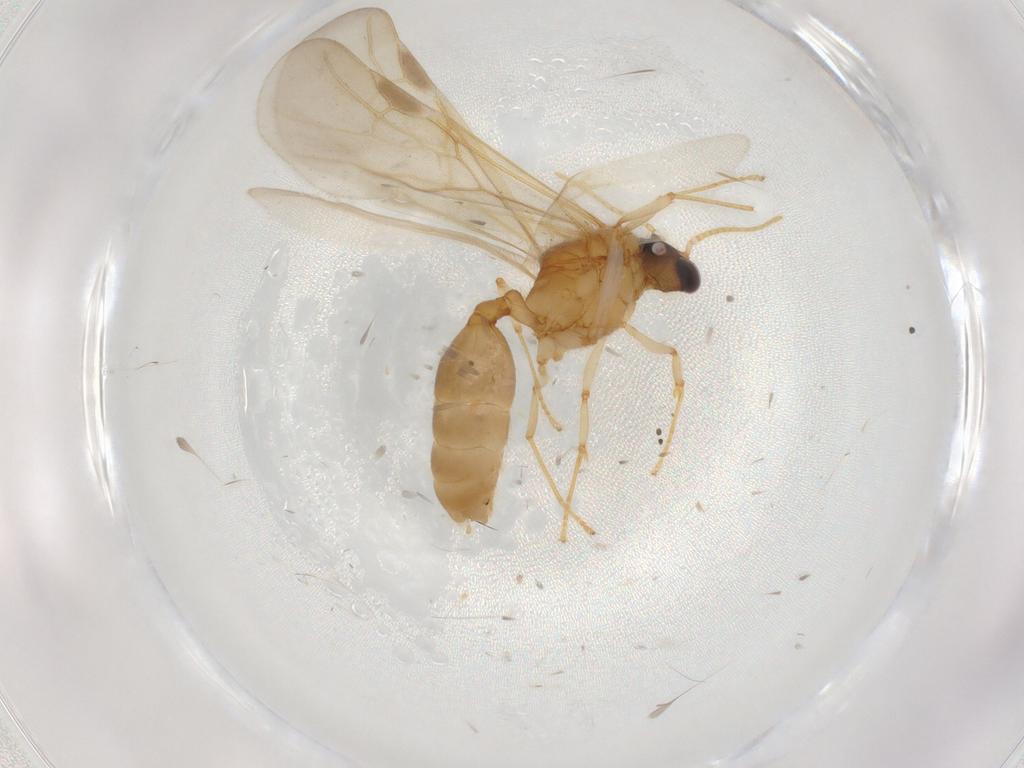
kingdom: Animalia
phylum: Arthropoda
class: Insecta
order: Hymenoptera
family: Formicidae
